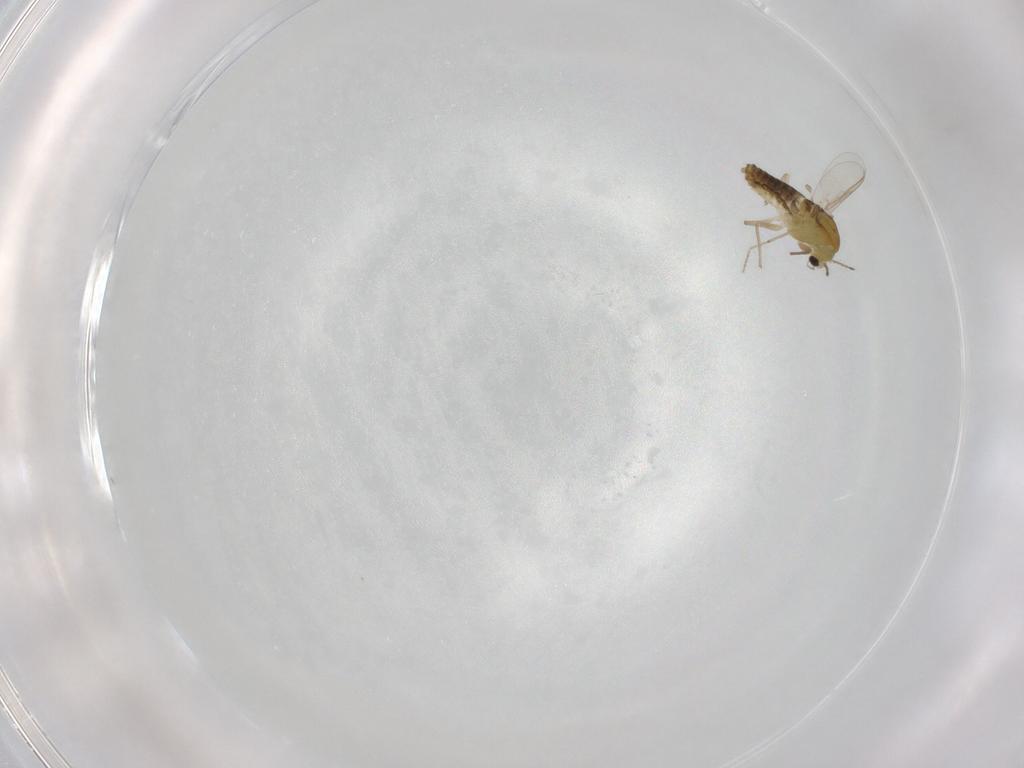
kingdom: Animalia
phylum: Arthropoda
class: Insecta
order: Diptera
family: Chironomidae
